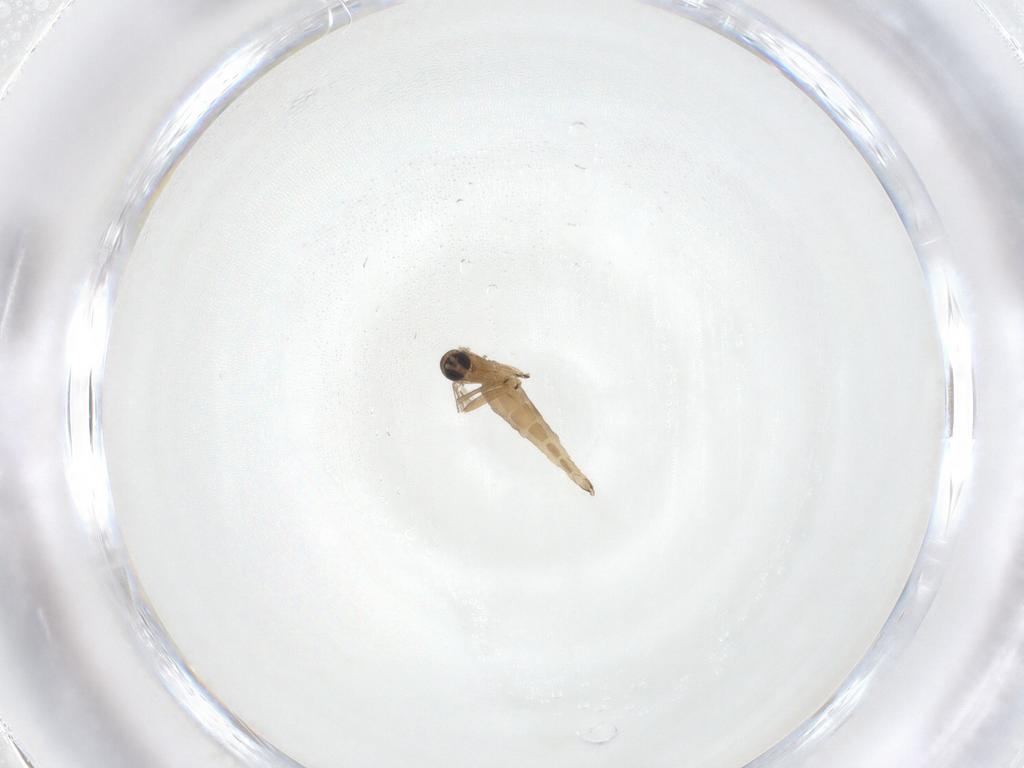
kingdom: Animalia
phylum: Arthropoda
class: Insecta
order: Diptera
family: Sciaridae
